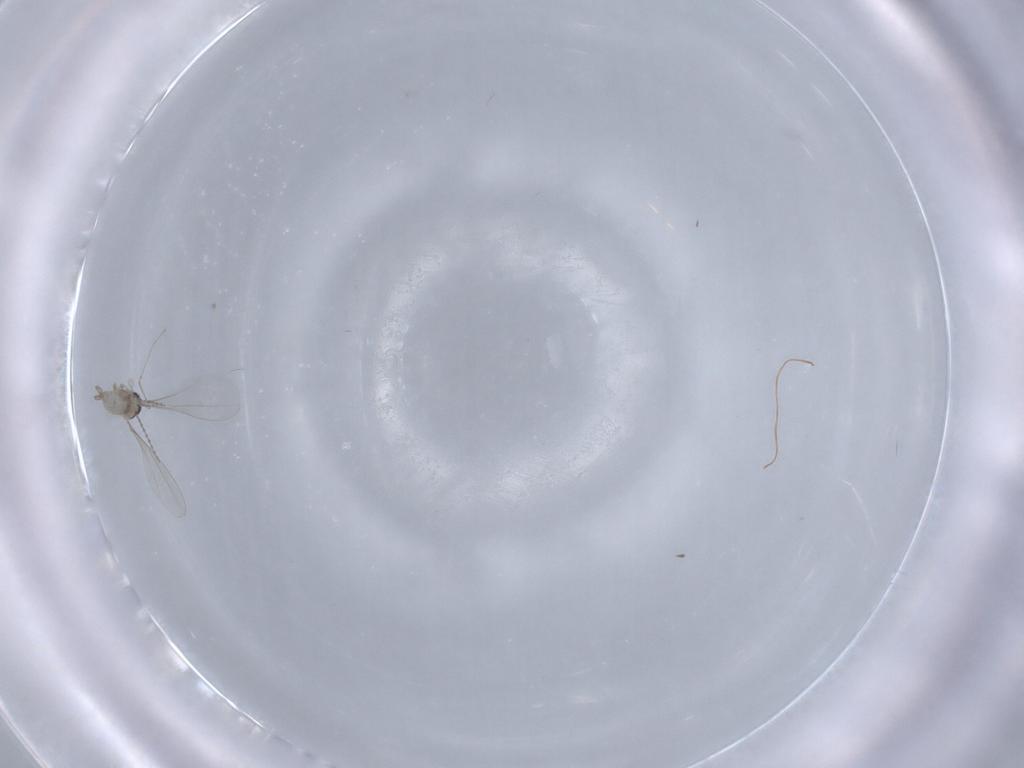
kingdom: Animalia
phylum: Arthropoda
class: Insecta
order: Diptera
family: Cecidomyiidae
